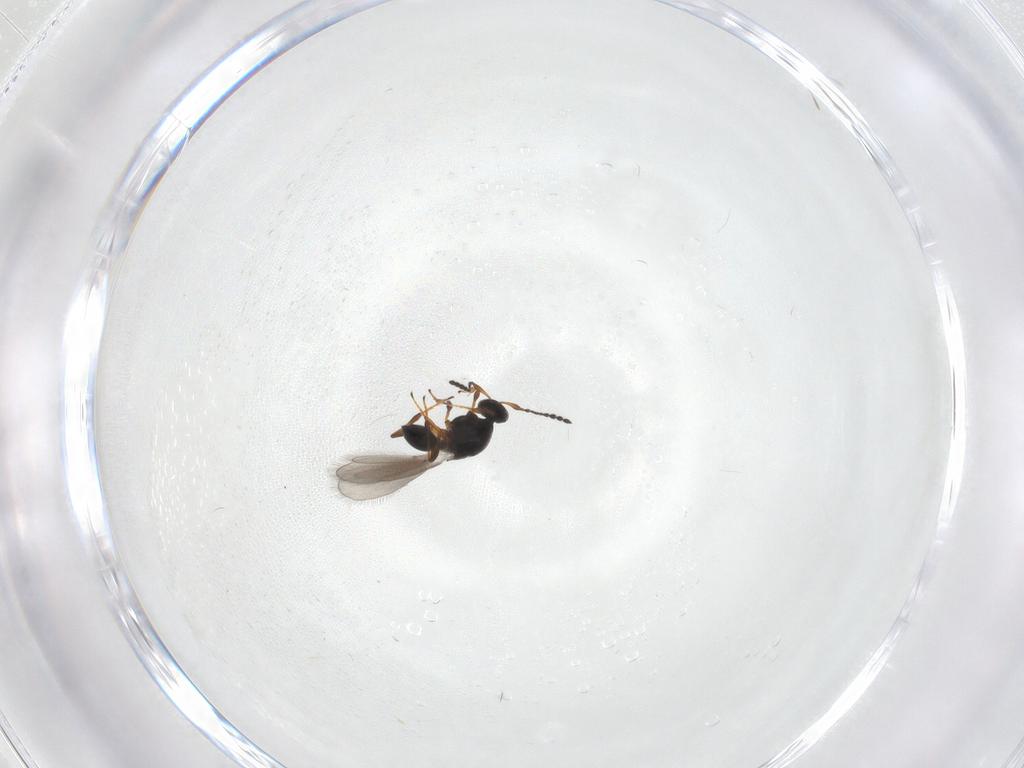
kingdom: Animalia
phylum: Arthropoda
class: Insecta
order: Hymenoptera
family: Platygastridae
